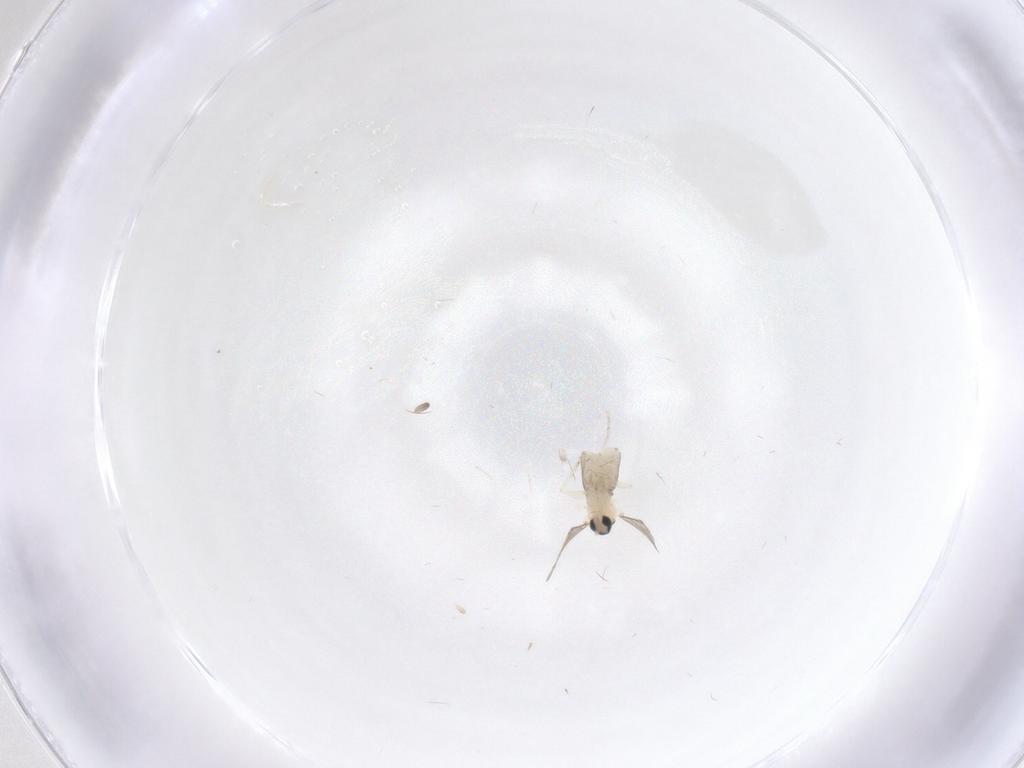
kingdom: Animalia
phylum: Arthropoda
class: Insecta
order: Diptera
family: Cecidomyiidae
